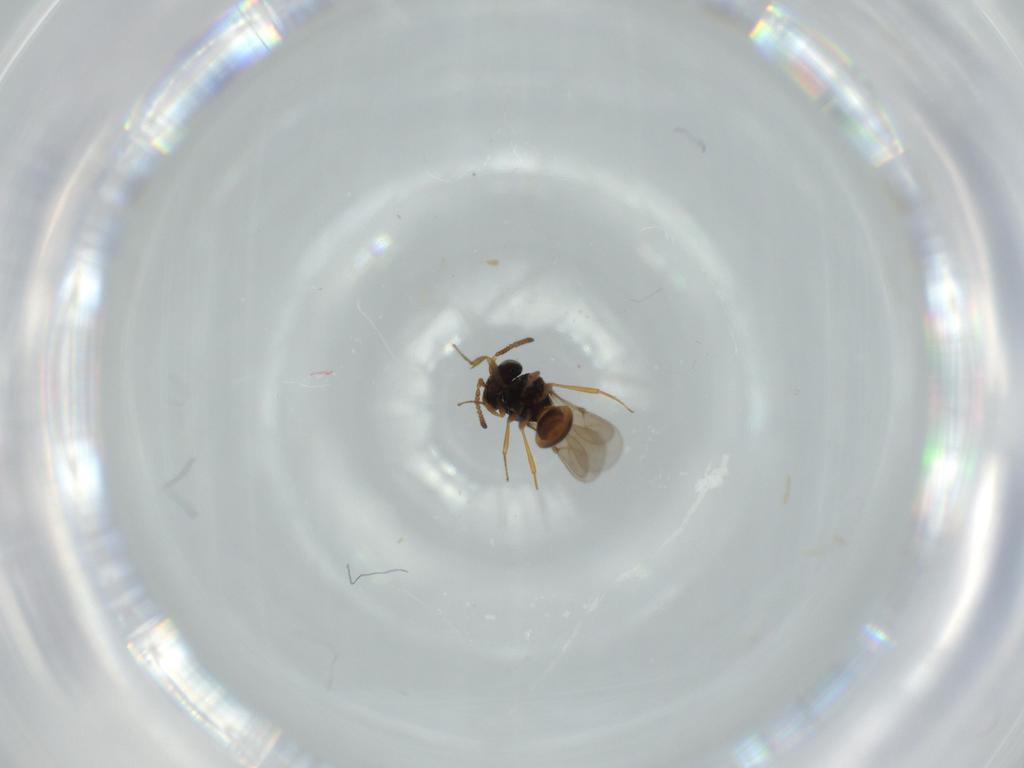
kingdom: Animalia
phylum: Arthropoda
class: Insecta
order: Hymenoptera
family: Scelionidae
